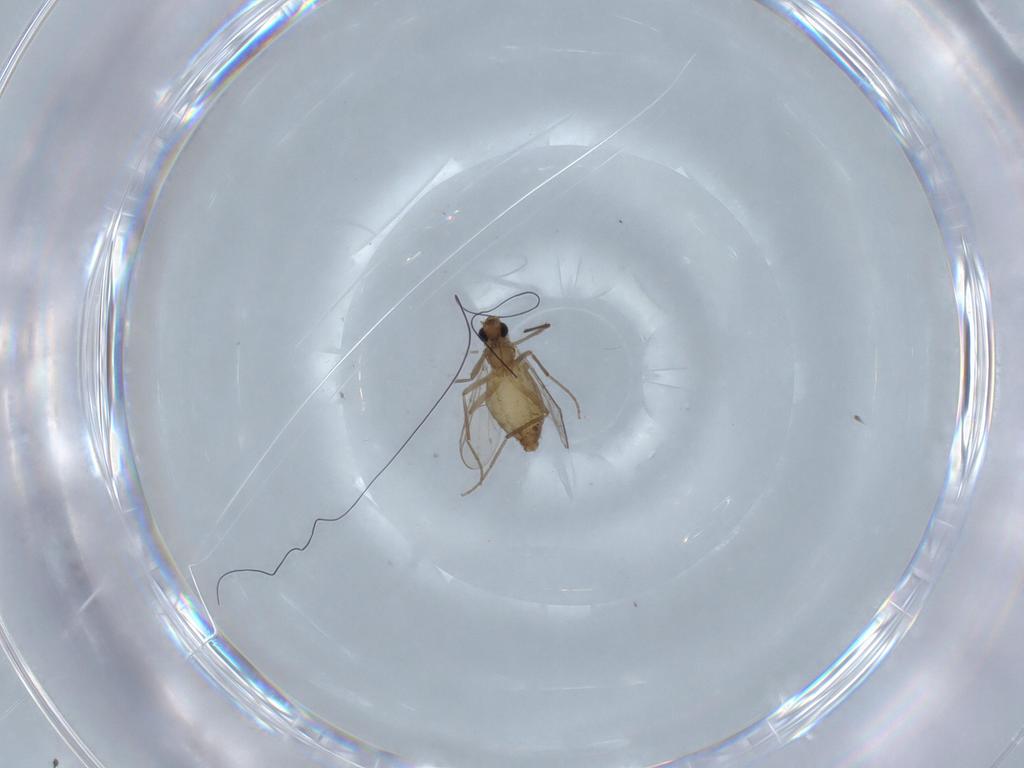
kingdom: Animalia
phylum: Arthropoda
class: Insecta
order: Diptera
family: Chironomidae
